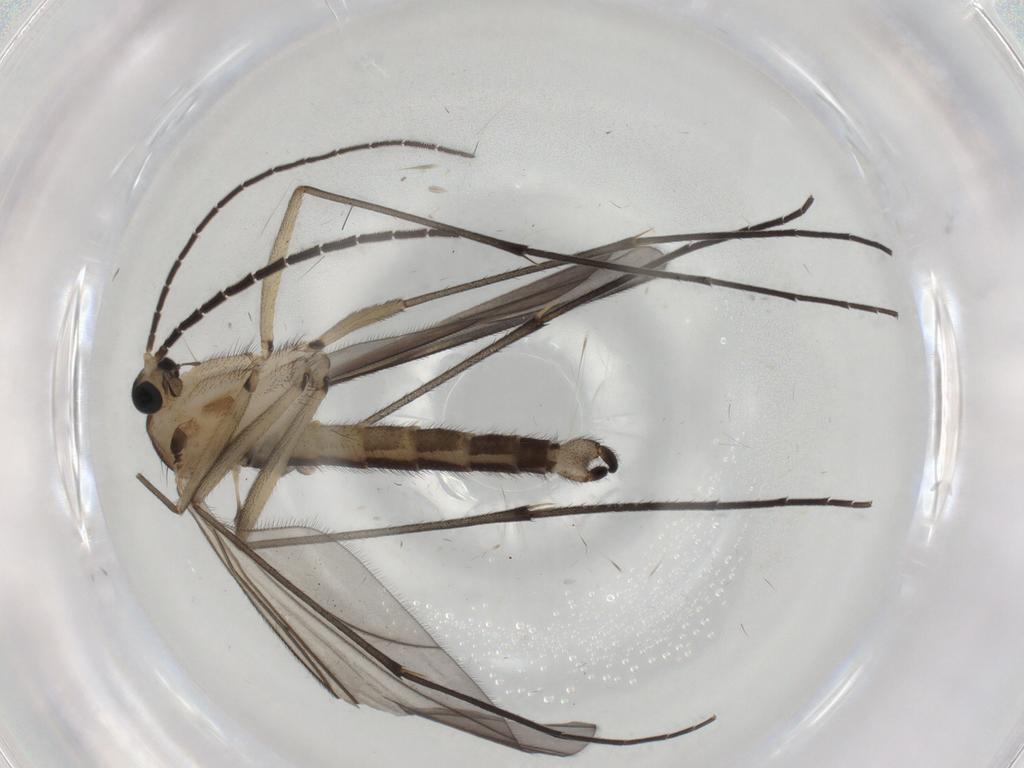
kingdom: Animalia
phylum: Arthropoda
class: Insecta
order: Diptera
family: Sciaridae
